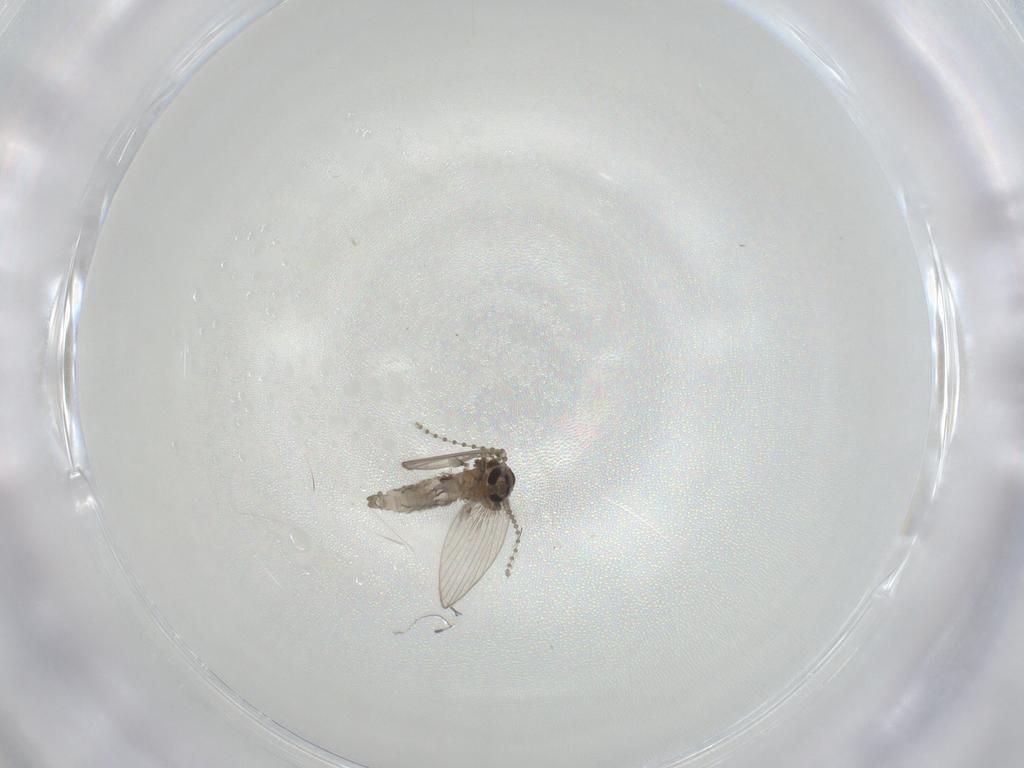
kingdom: Animalia
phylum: Arthropoda
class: Insecta
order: Diptera
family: Psychodidae
